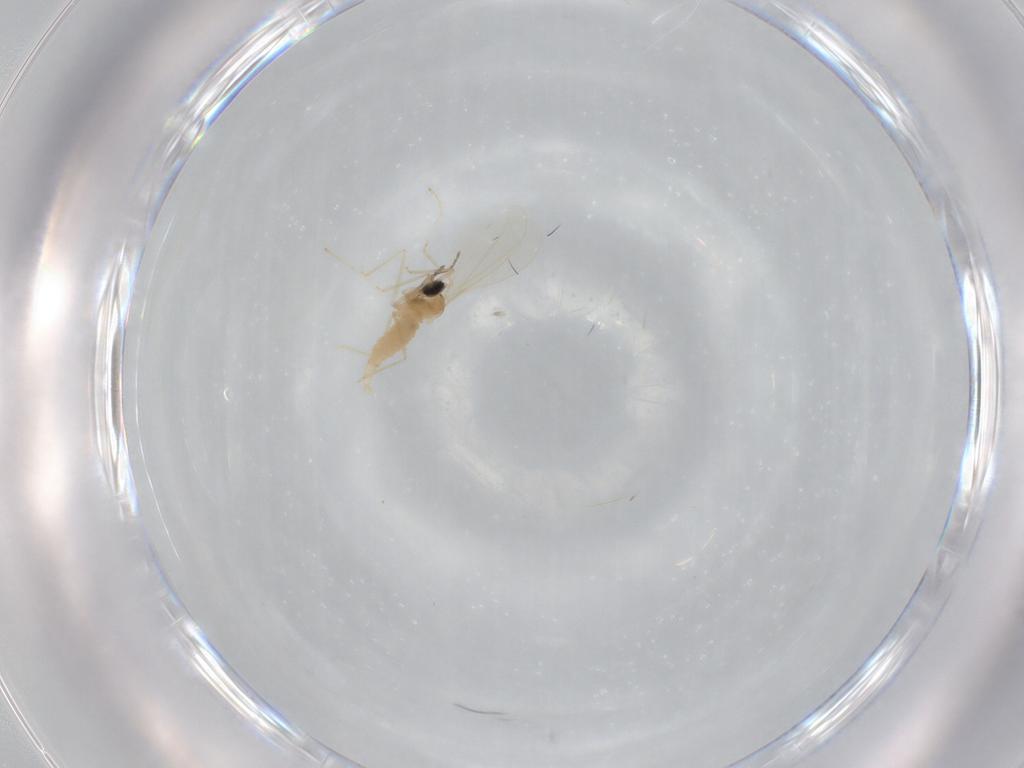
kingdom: Animalia
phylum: Arthropoda
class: Insecta
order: Diptera
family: Cecidomyiidae
